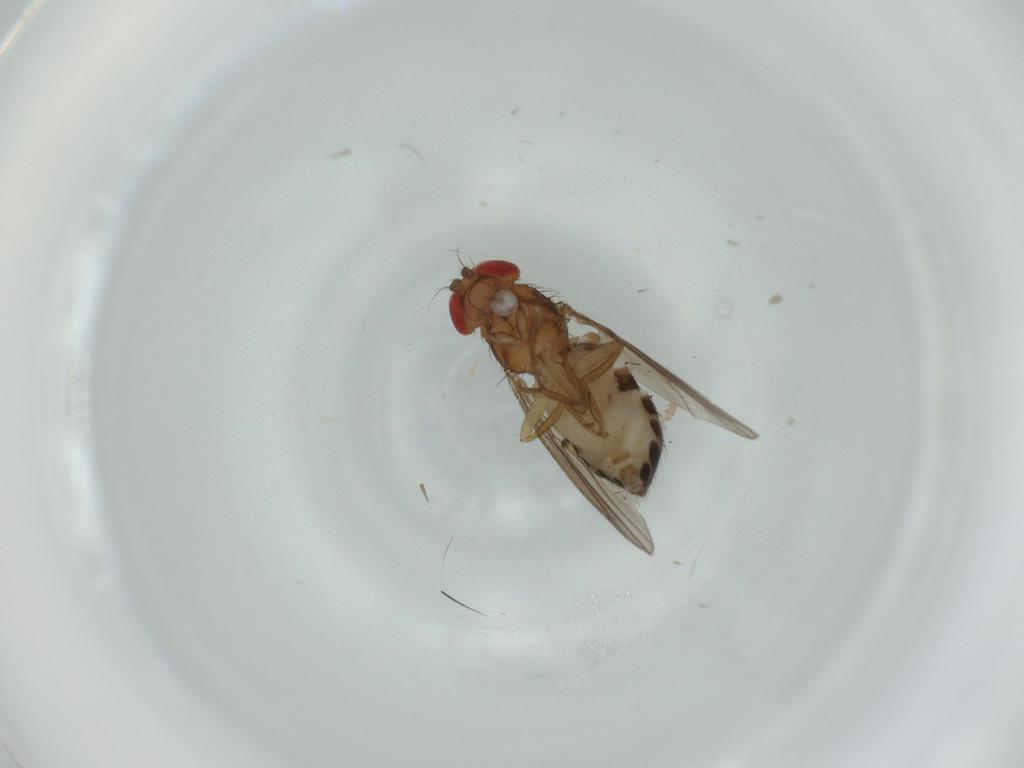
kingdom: Animalia
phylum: Arthropoda
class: Insecta
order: Diptera
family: Drosophilidae
